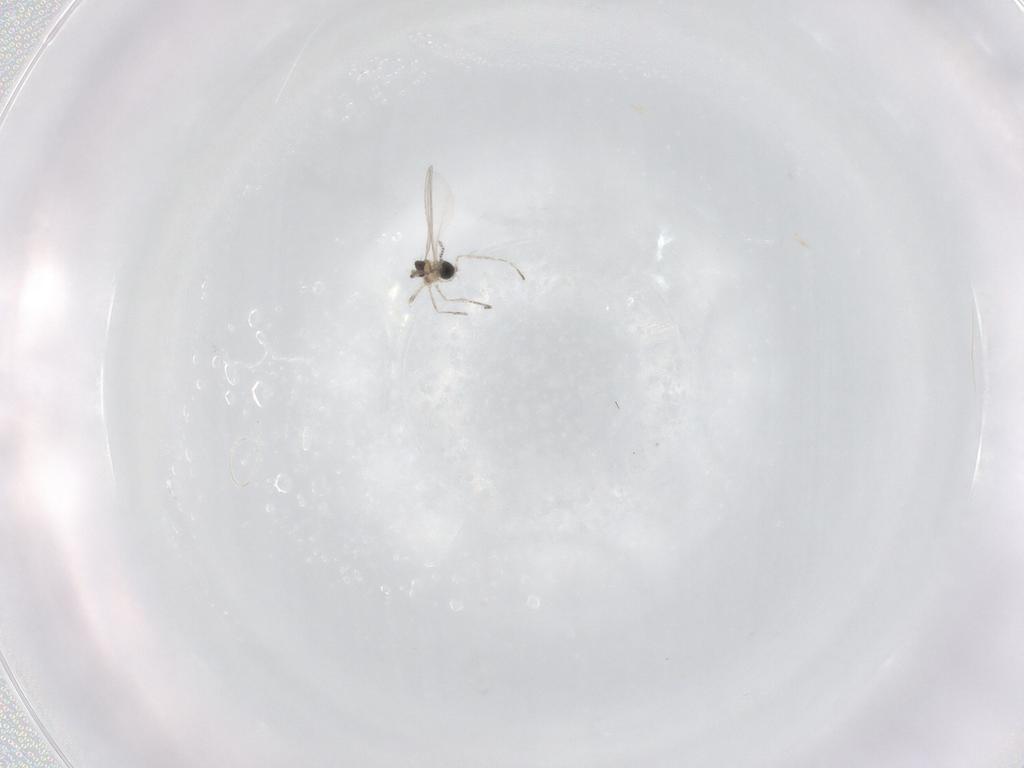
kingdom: Animalia
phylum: Arthropoda
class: Insecta
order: Diptera
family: Cecidomyiidae
